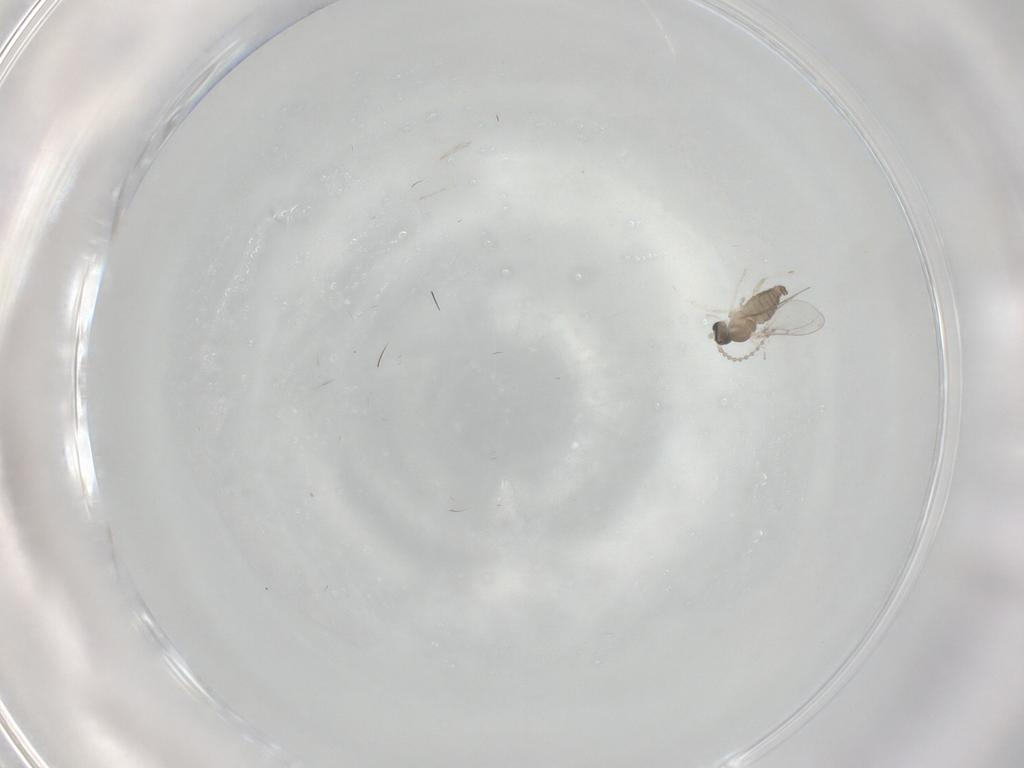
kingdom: Animalia
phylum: Arthropoda
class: Insecta
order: Diptera
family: Cecidomyiidae
